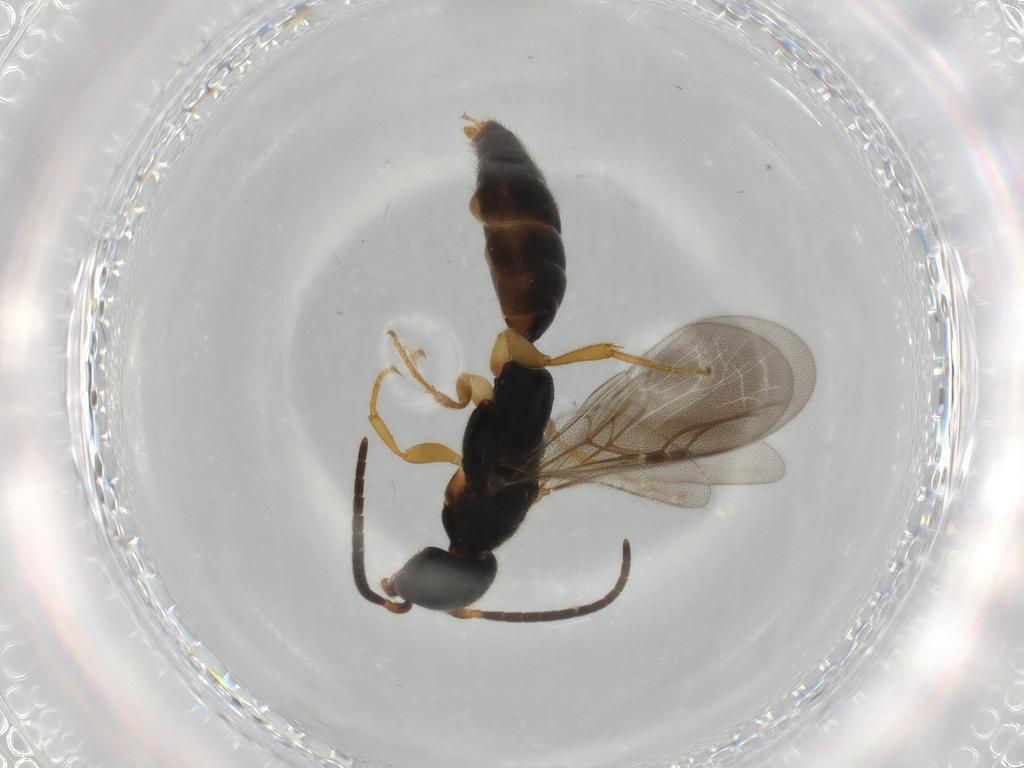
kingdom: Animalia
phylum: Arthropoda
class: Insecta
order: Hymenoptera
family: Bethylidae
